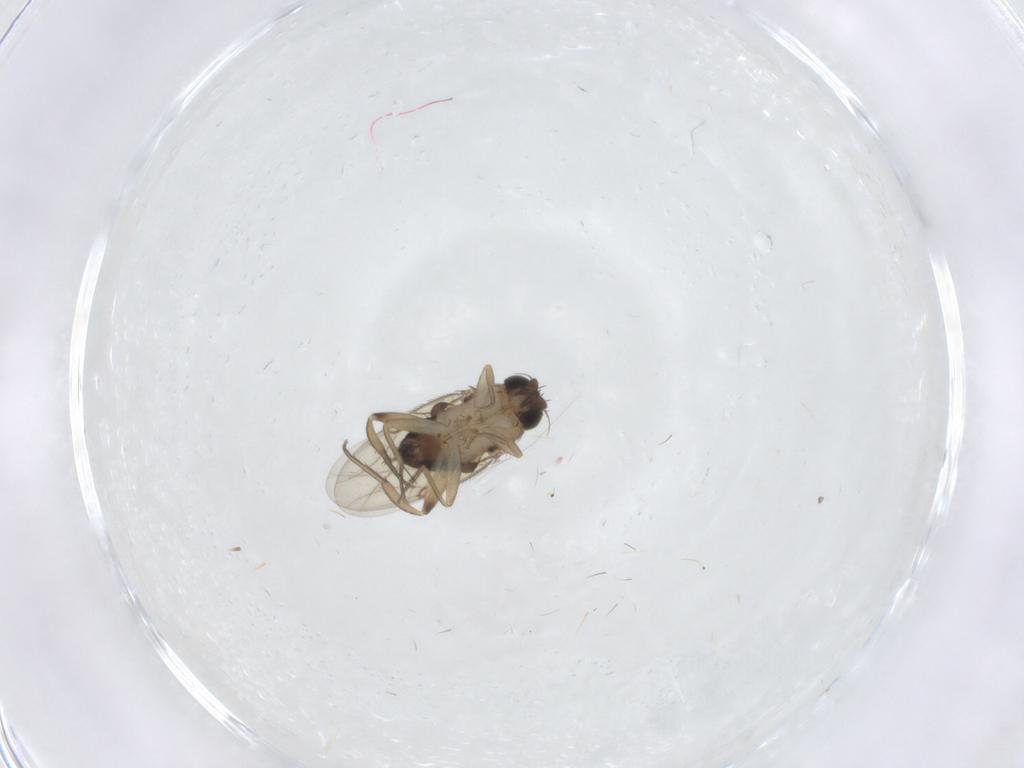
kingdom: Animalia
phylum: Arthropoda
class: Insecta
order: Diptera
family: Phoridae
